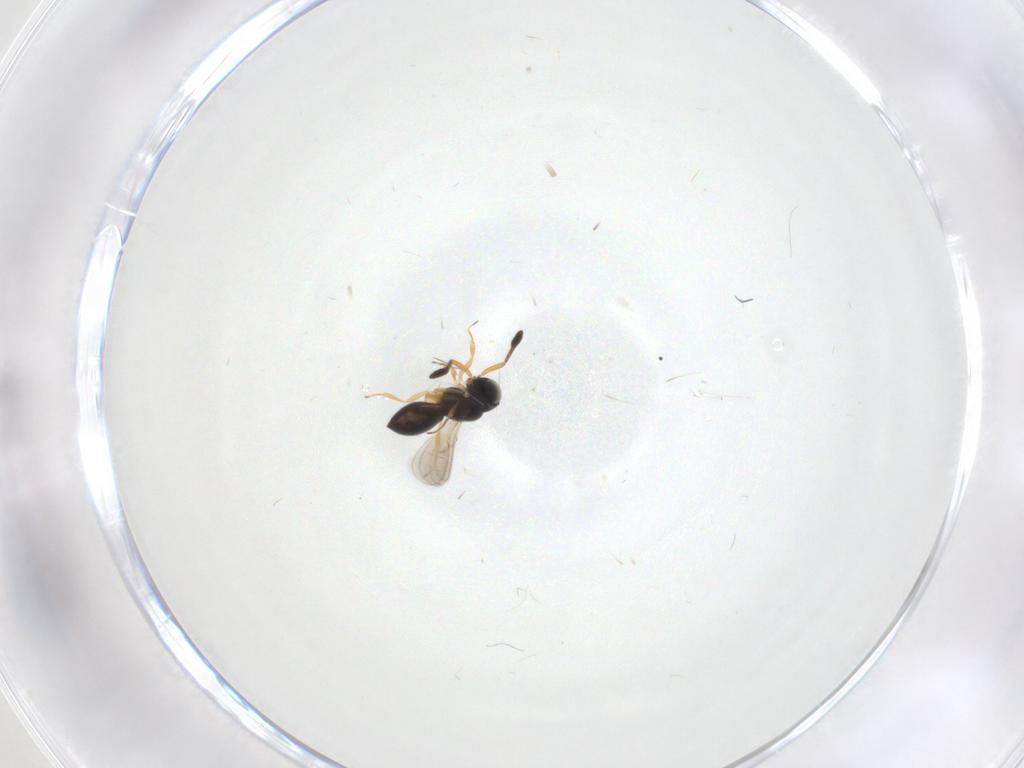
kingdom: Animalia
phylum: Arthropoda
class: Insecta
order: Hymenoptera
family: Scelionidae
